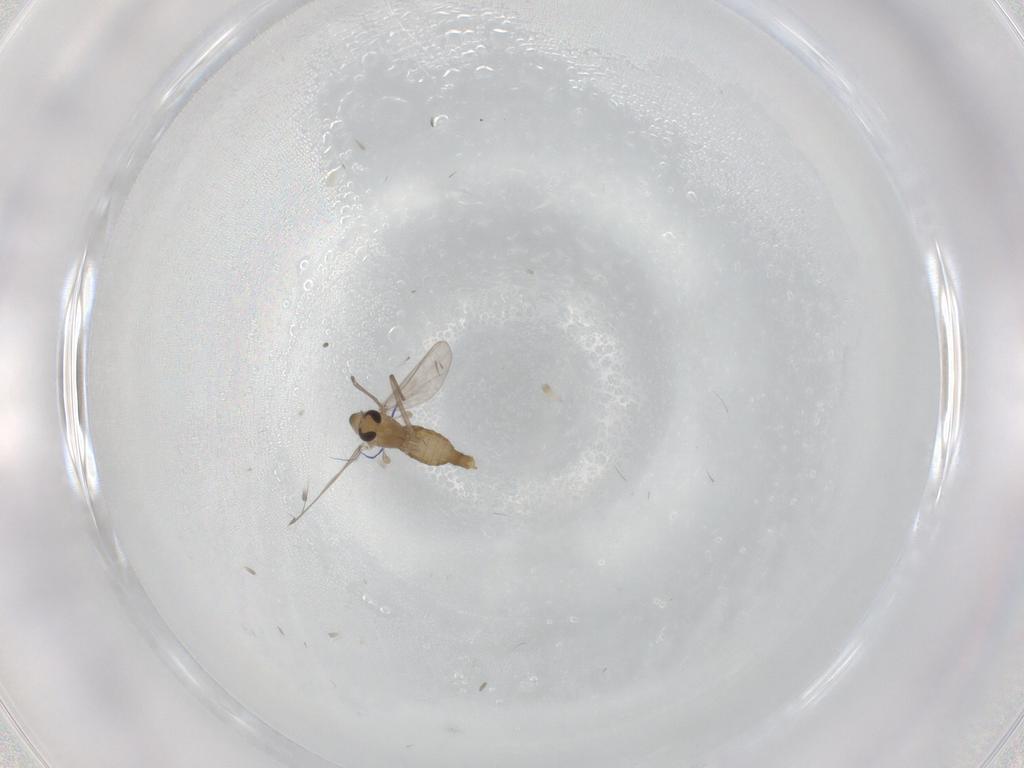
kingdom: Animalia
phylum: Arthropoda
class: Insecta
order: Diptera
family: Chironomidae
